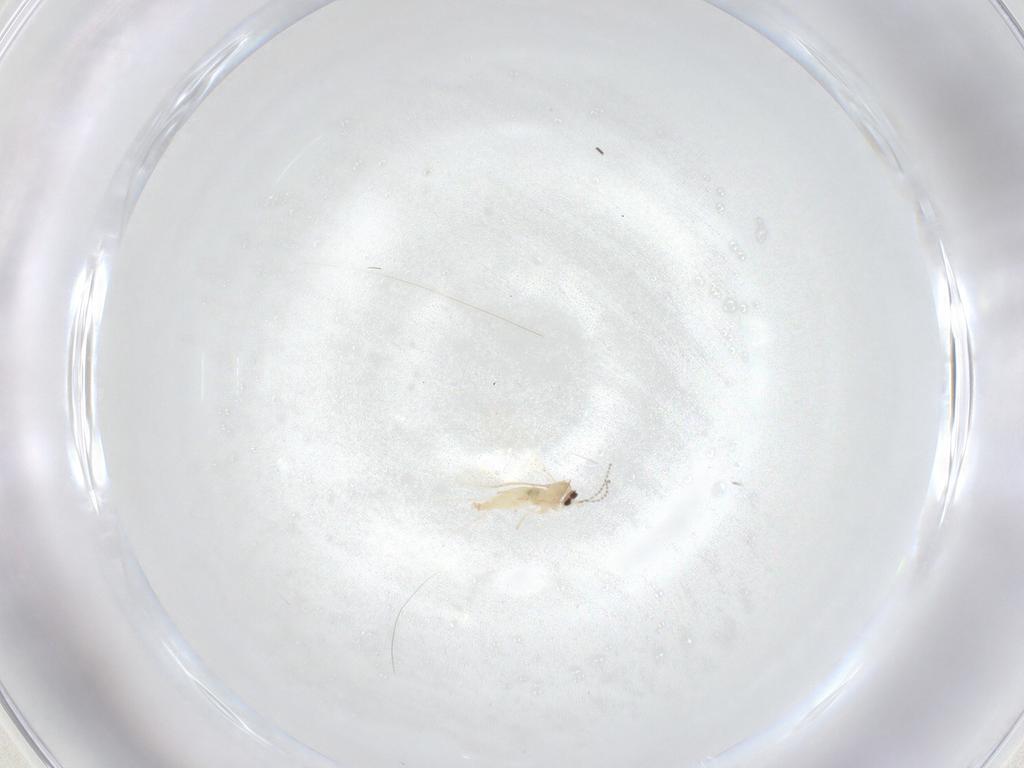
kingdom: Animalia
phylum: Arthropoda
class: Insecta
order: Diptera
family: Cecidomyiidae
